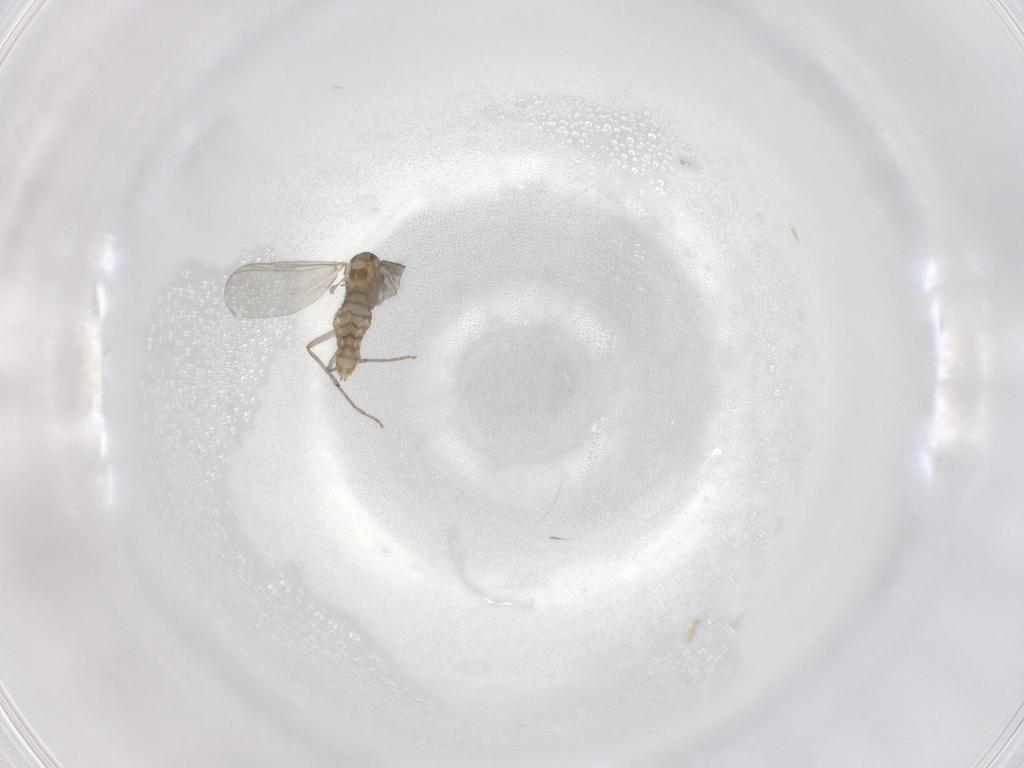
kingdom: Animalia
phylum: Arthropoda
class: Insecta
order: Diptera
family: Chironomidae
